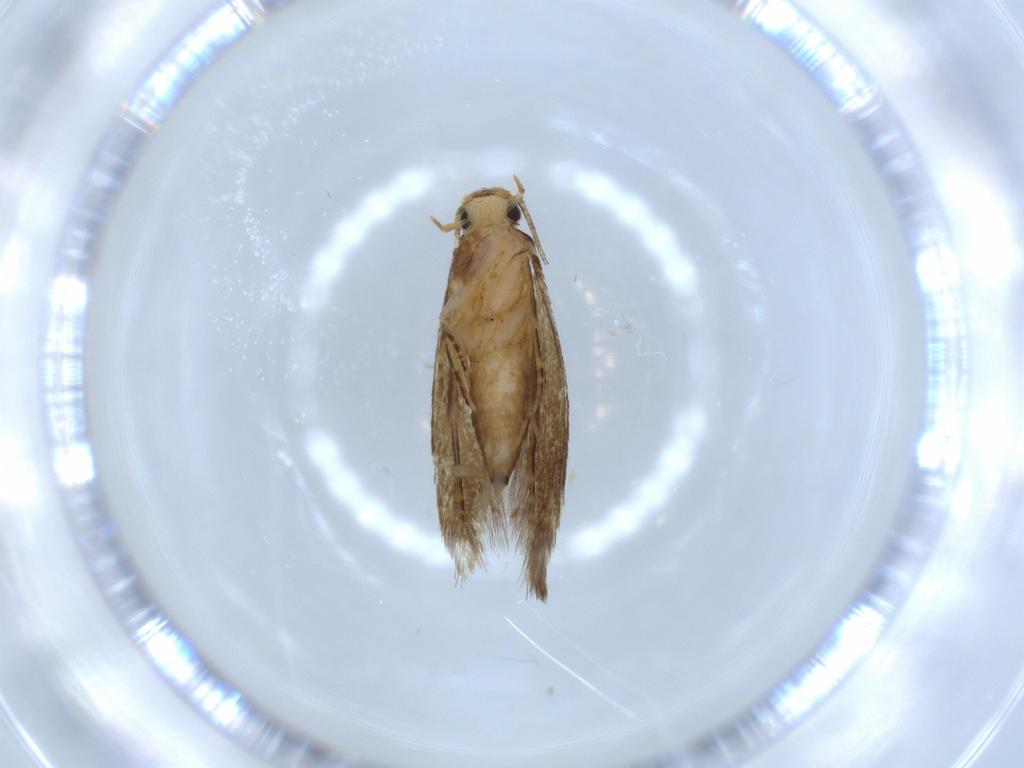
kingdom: Animalia
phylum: Arthropoda
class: Insecta
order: Lepidoptera
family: Tineidae
